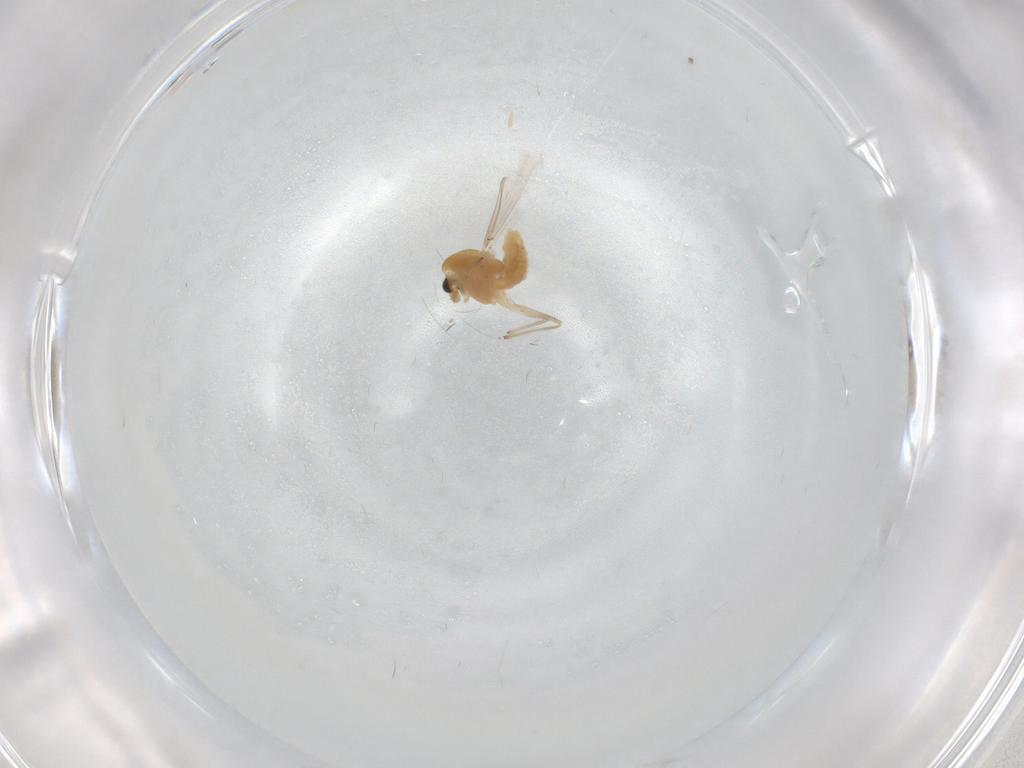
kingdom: Animalia
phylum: Arthropoda
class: Insecta
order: Diptera
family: Chironomidae
